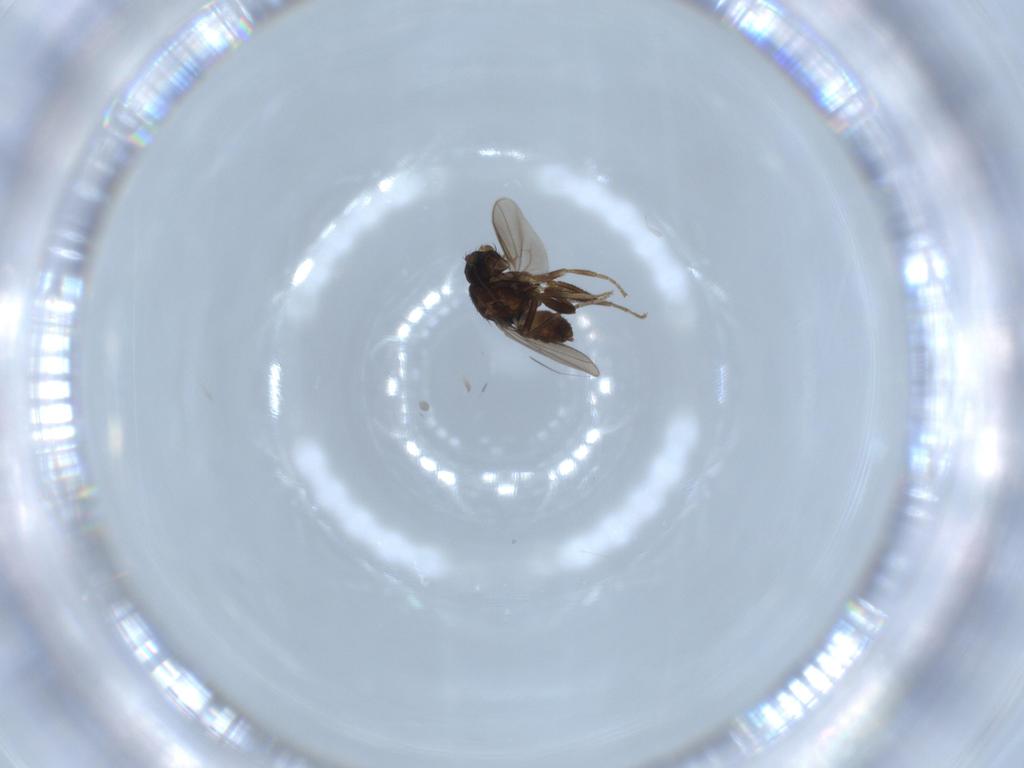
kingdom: Animalia
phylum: Arthropoda
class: Insecta
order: Diptera
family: Sphaeroceridae
